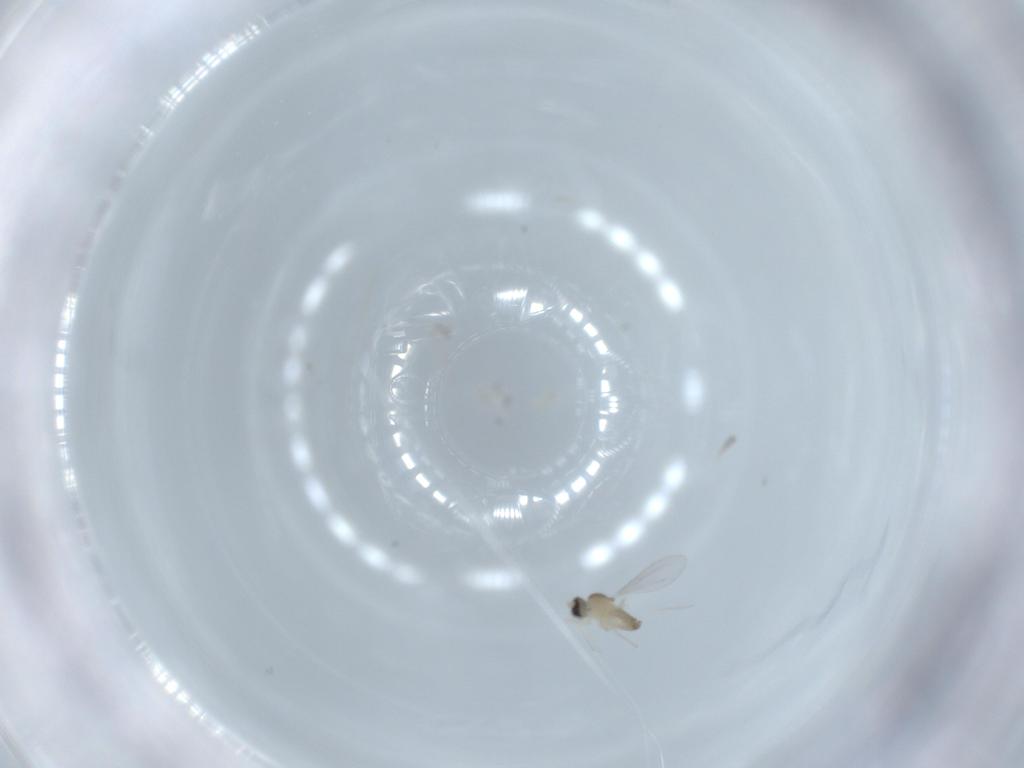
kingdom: Animalia
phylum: Arthropoda
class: Insecta
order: Diptera
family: Cecidomyiidae
